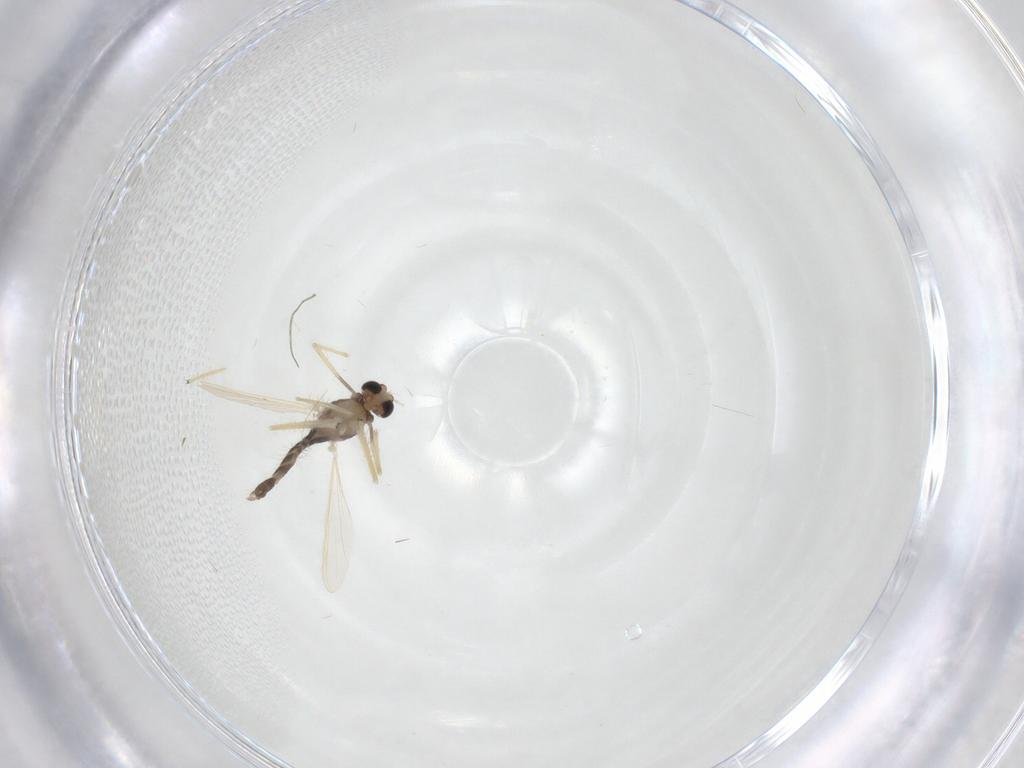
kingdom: Animalia
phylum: Arthropoda
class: Insecta
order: Diptera
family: Chironomidae
